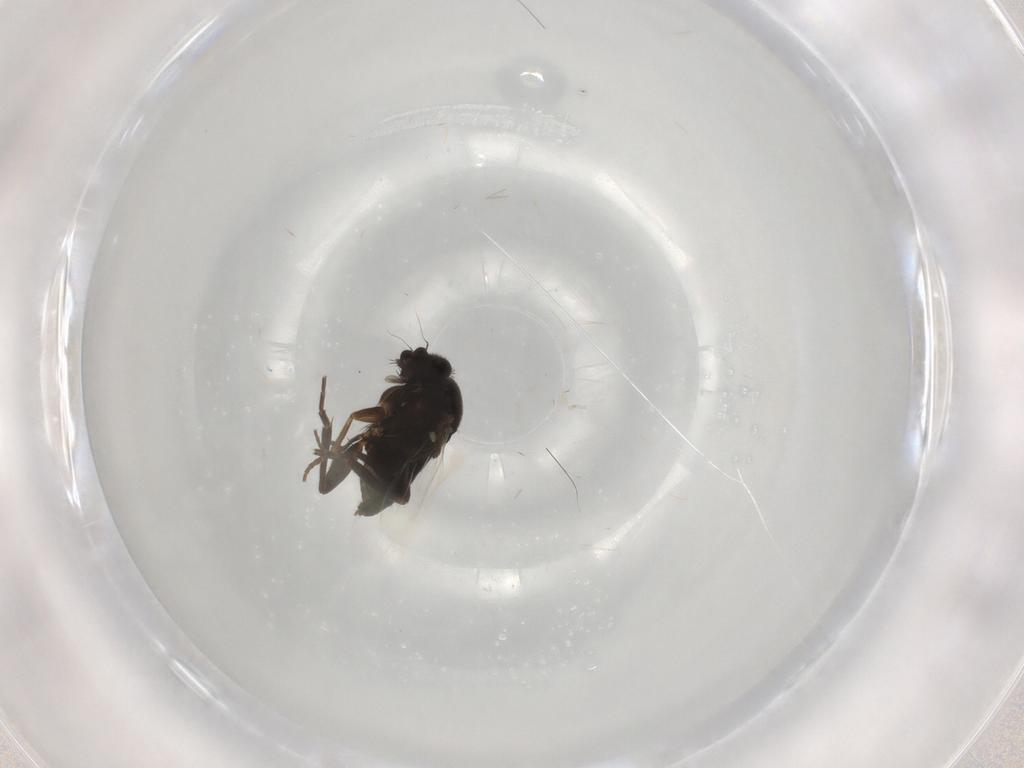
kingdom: Animalia
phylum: Arthropoda
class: Insecta
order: Diptera
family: Phoridae
